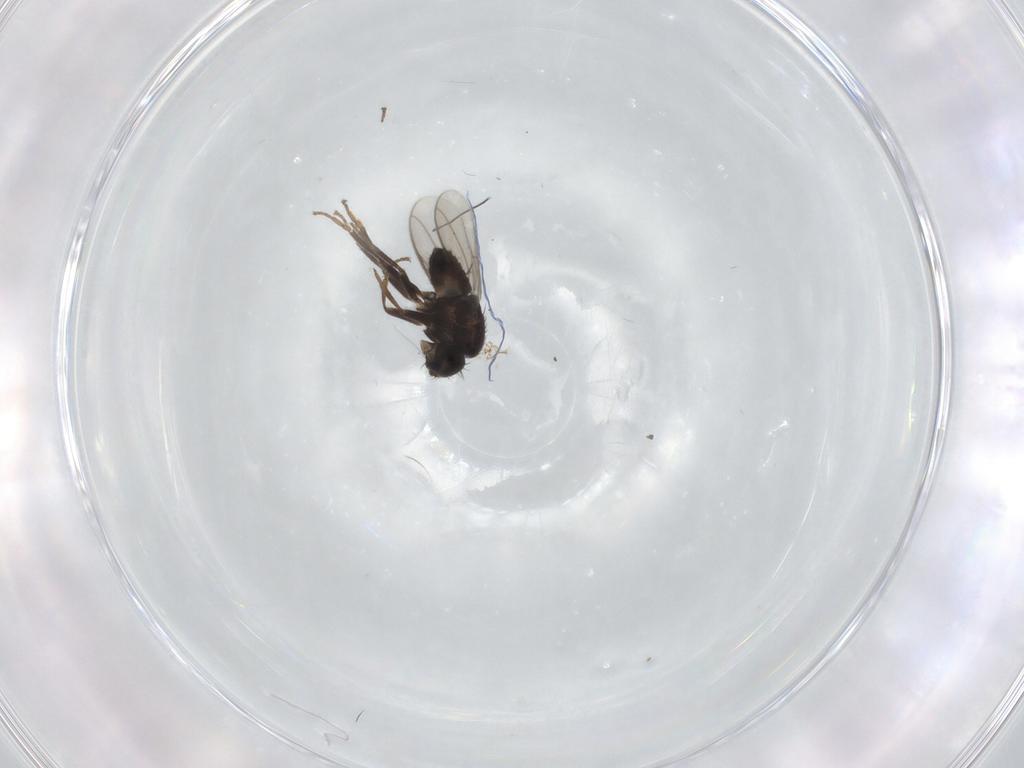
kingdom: Animalia
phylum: Arthropoda
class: Insecta
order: Diptera
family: Sphaeroceridae
